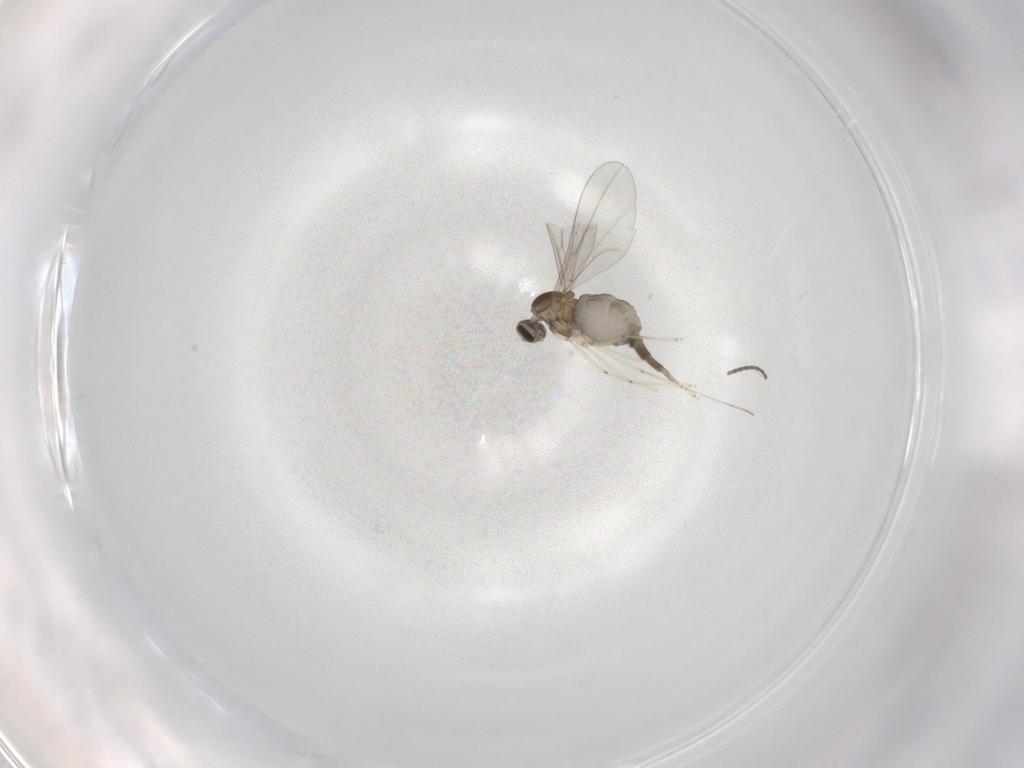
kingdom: Animalia
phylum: Arthropoda
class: Insecta
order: Diptera
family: Cecidomyiidae
